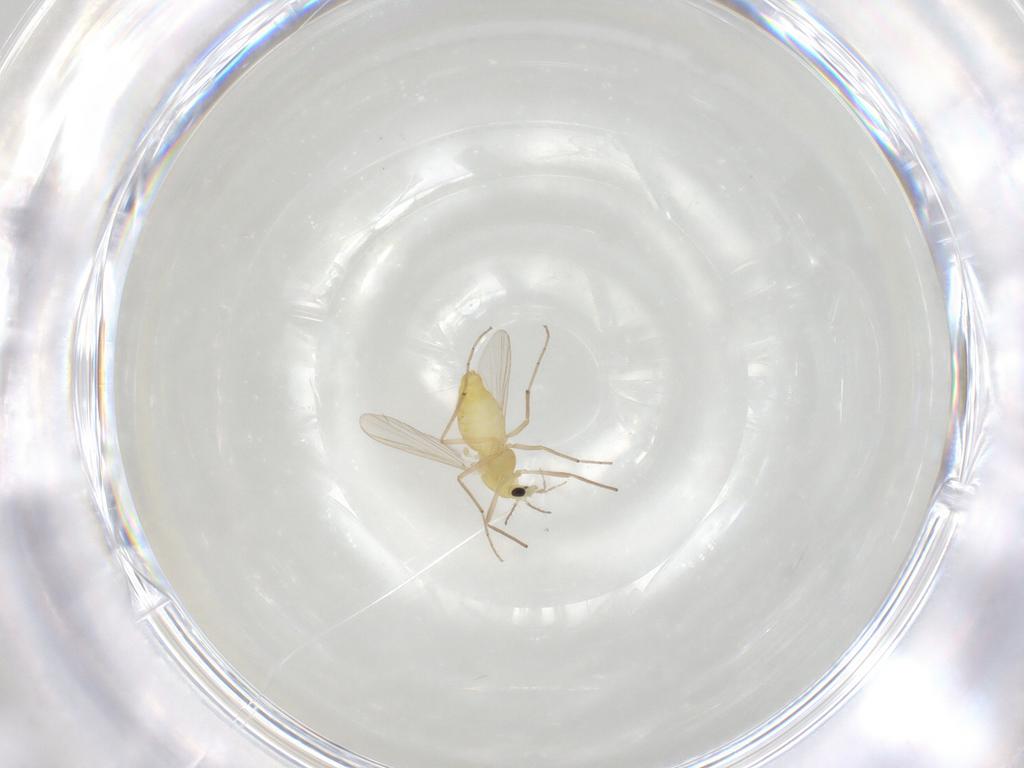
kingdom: Animalia
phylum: Arthropoda
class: Insecta
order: Diptera
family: Chironomidae
